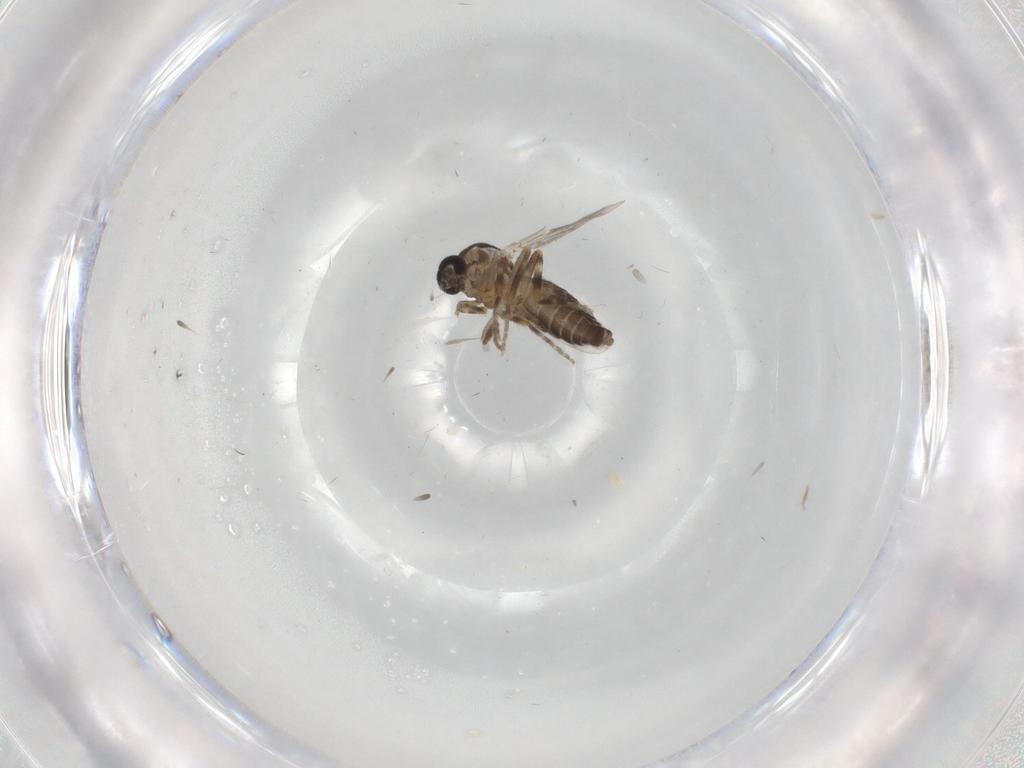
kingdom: Animalia
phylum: Arthropoda
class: Insecta
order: Diptera
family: Ceratopogonidae
